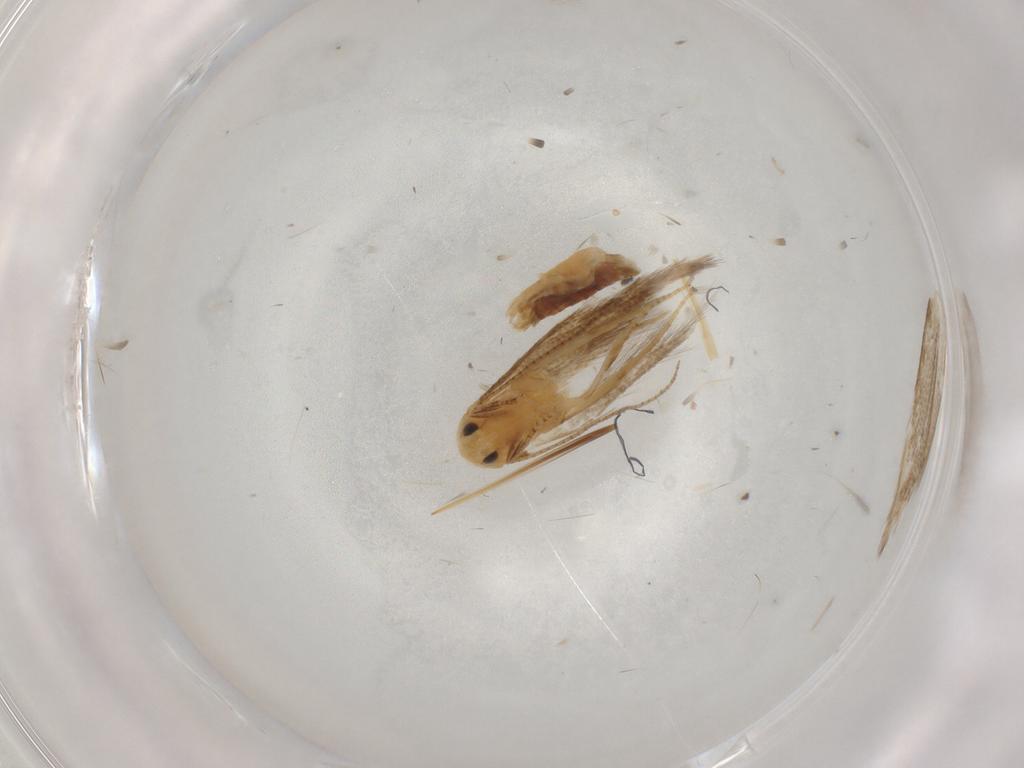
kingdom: Animalia
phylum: Arthropoda
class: Insecta
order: Lepidoptera
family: Bucculatricidae
